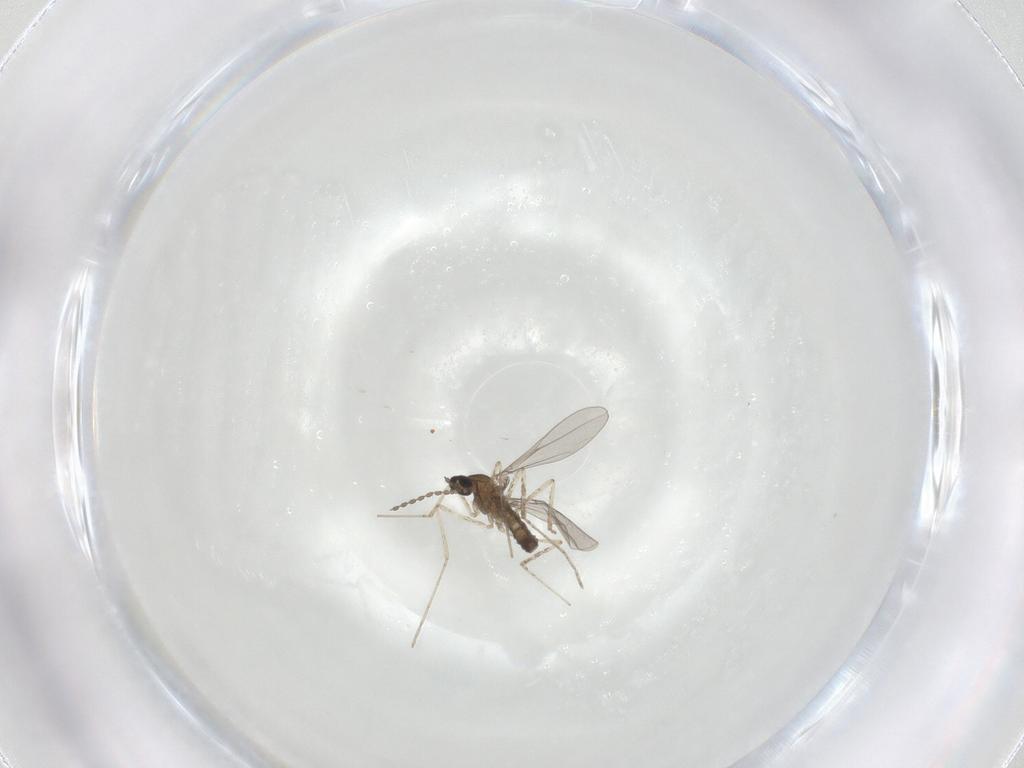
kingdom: Animalia
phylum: Arthropoda
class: Insecta
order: Diptera
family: Cecidomyiidae
